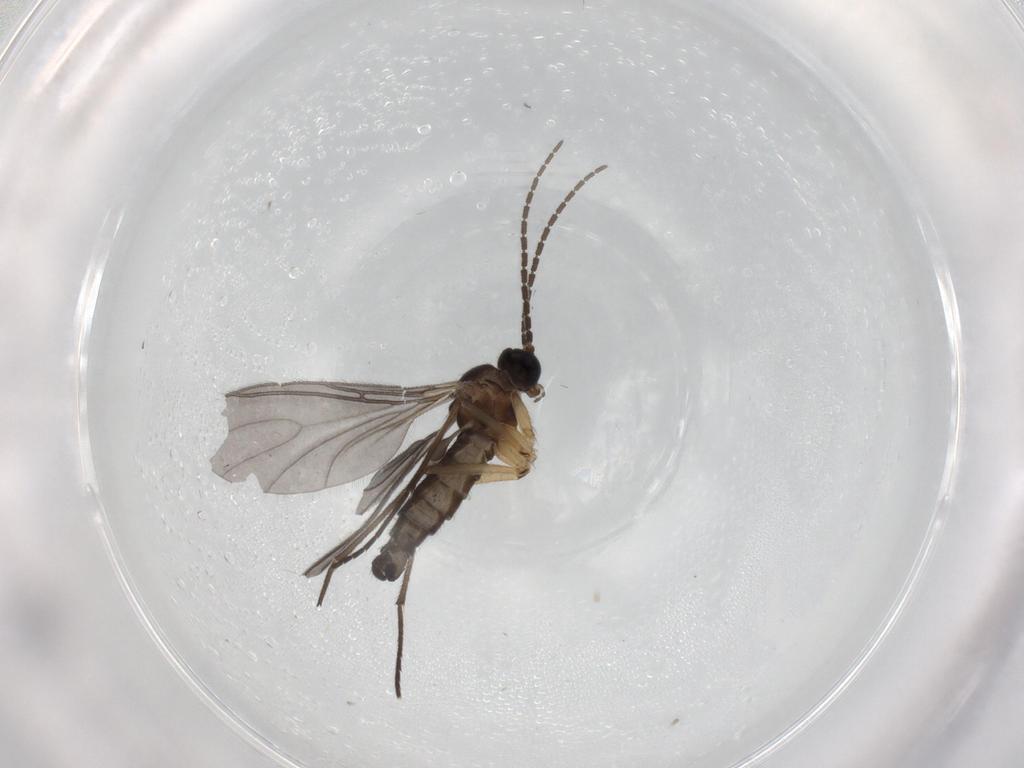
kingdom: Animalia
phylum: Arthropoda
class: Insecta
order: Diptera
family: Sciaridae
